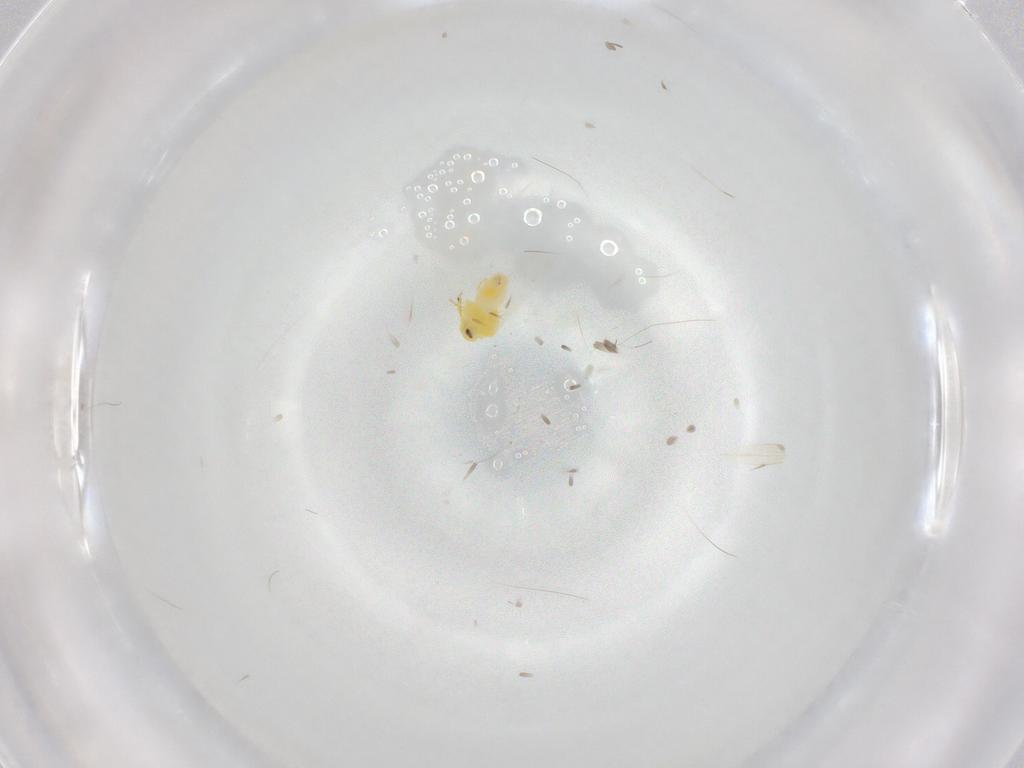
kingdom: Animalia
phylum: Arthropoda
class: Insecta
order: Hemiptera
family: Aleyrodidae
